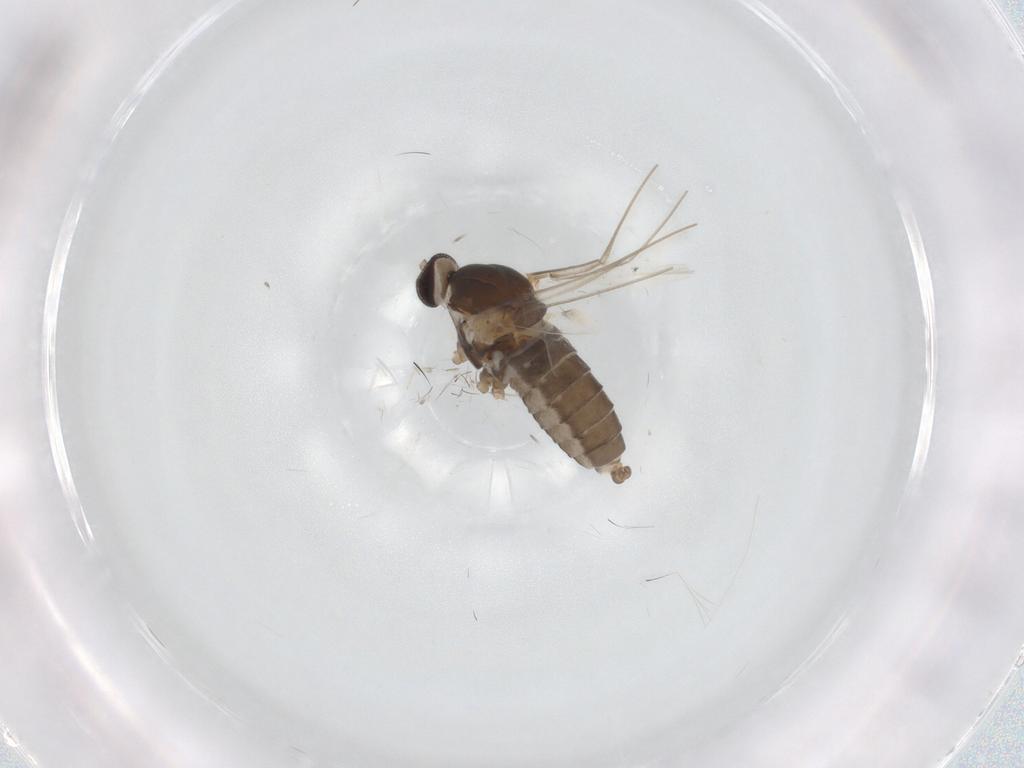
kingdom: Animalia
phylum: Arthropoda
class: Insecta
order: Diptera
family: Cecidomyiidae
